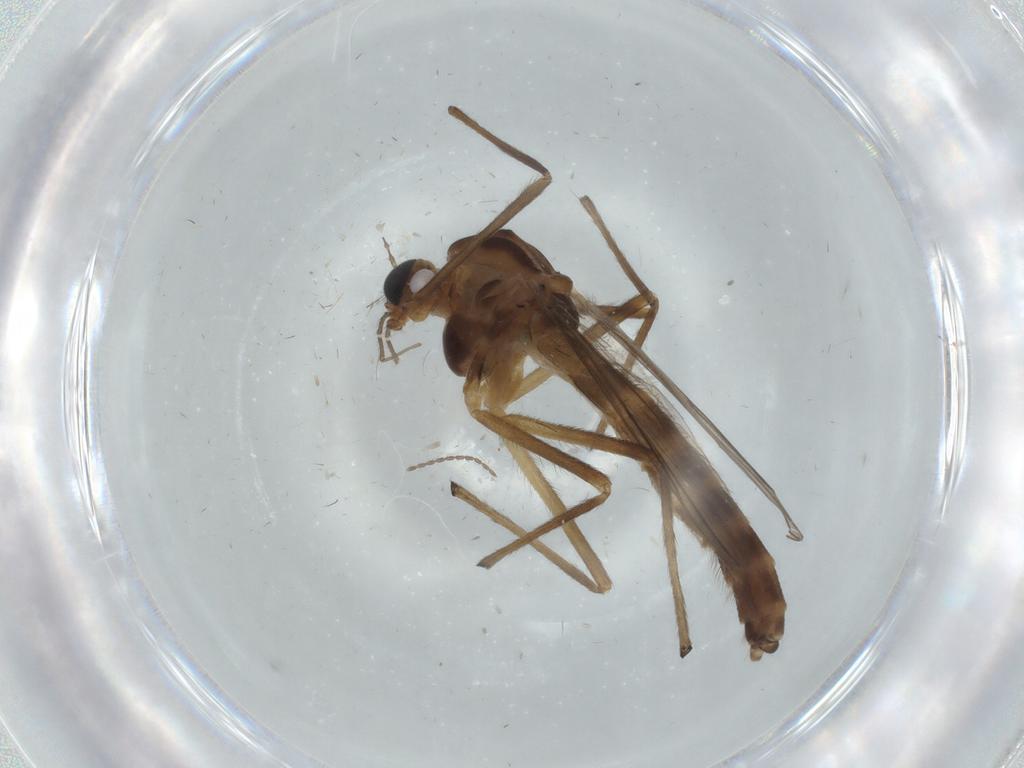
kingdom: Animalia
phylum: Arthropoda
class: Insecta
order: Diptera
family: Chironomidae
